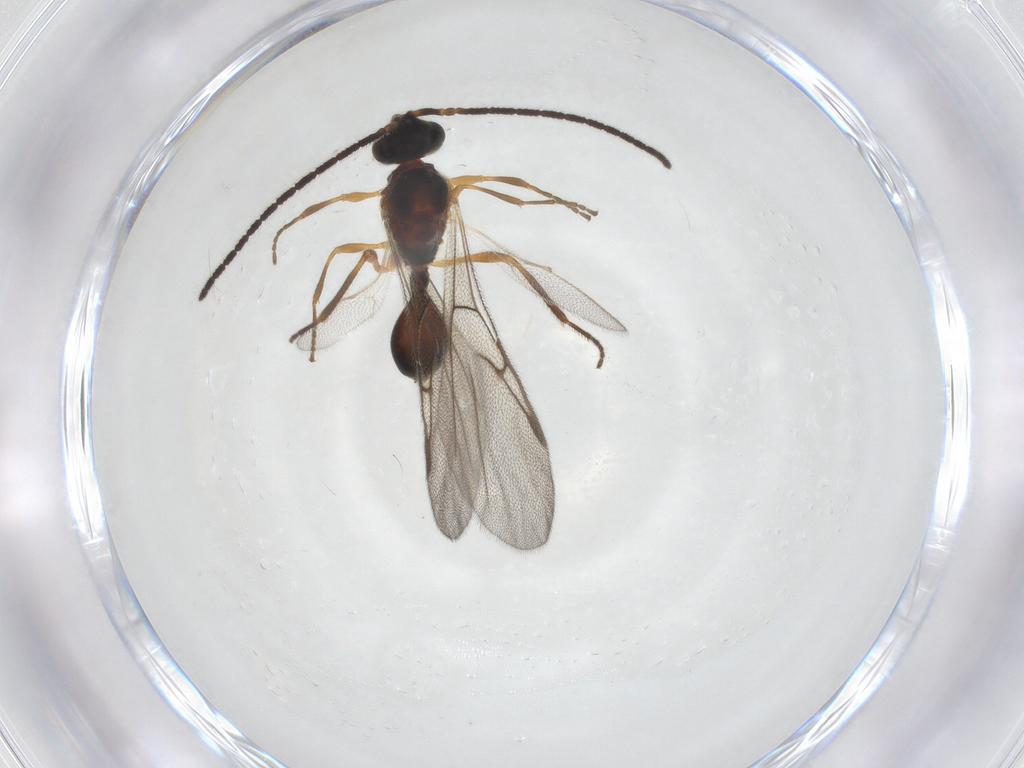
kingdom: Animalia
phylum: Arthropoda
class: Insecta
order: Hymenoptera
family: Diapriidae
